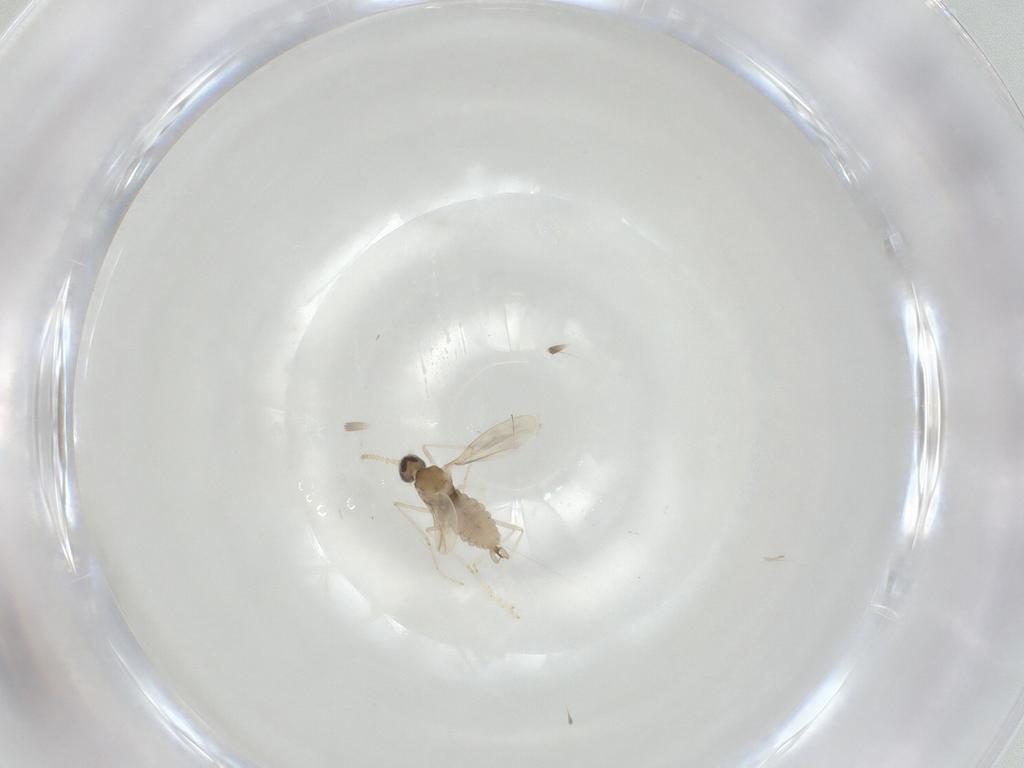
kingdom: Animalia
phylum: Arthropoda
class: Insecta
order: Diptera
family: Cecidomyiidae
